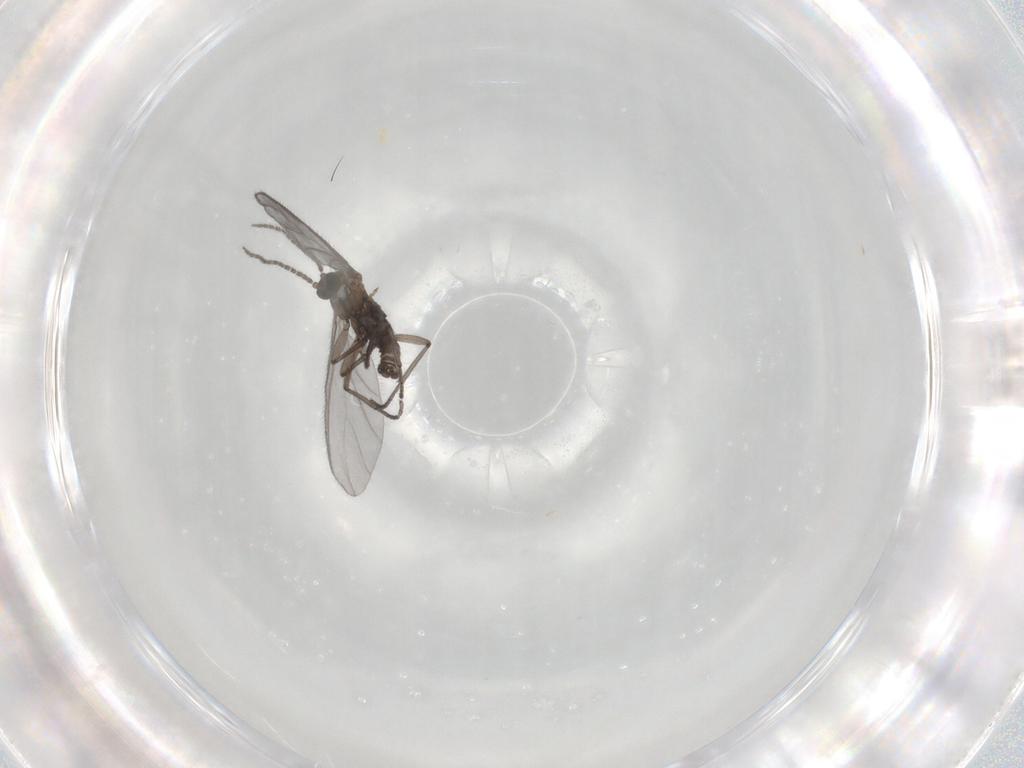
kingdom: Animalia
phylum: Arthropoda
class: Insecta
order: Diptera
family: Sciaridae
